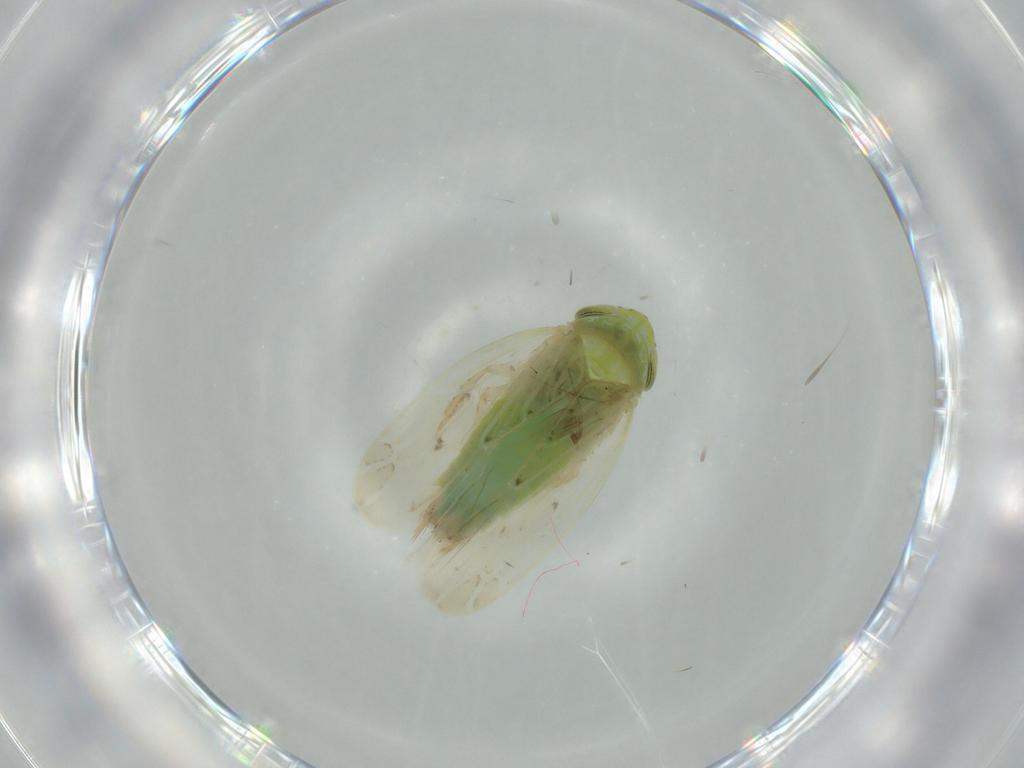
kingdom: Animalia
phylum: Arthropoda
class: Insecta
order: Hemiptera
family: Cicadellidae
